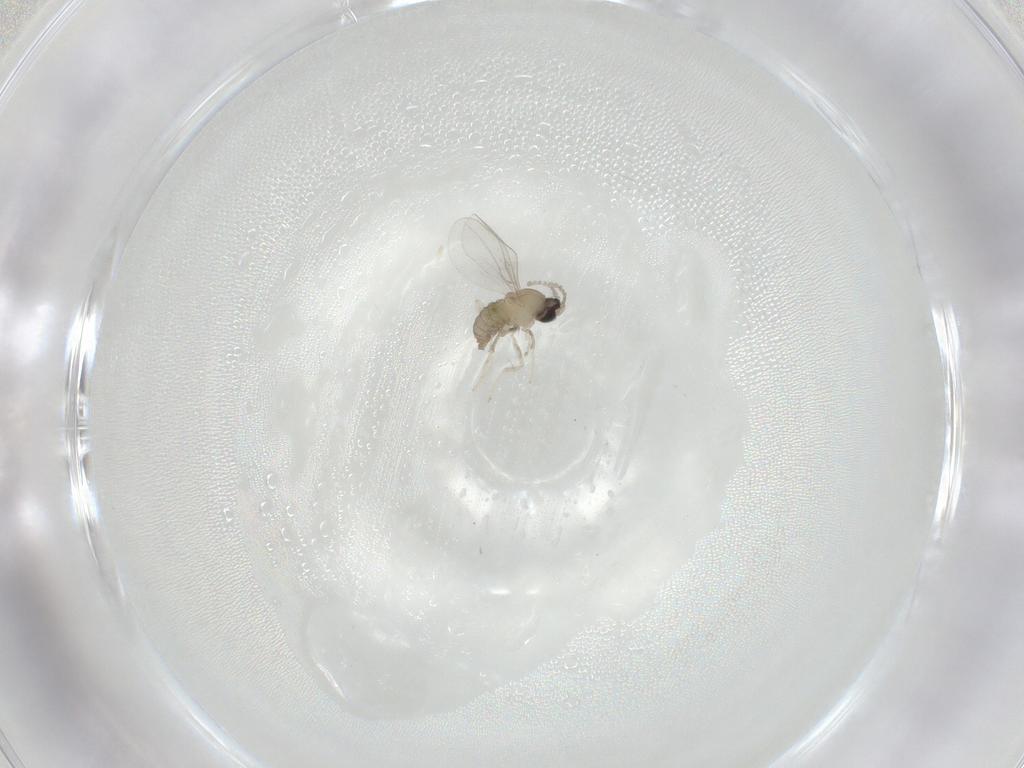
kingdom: Animalia
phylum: Arthropoda
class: Insecta
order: Diptera
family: Cecidomyiidae
